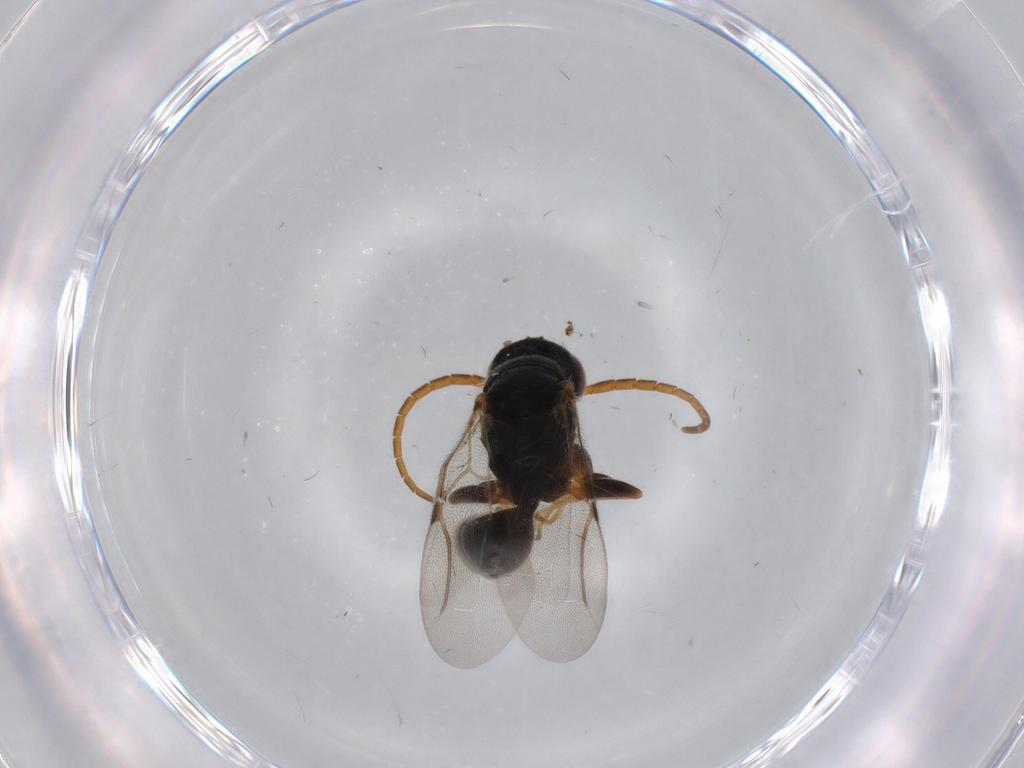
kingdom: Animalia
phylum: Arthropoda
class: Insecta
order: Hymenoptera
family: Bethylidae
